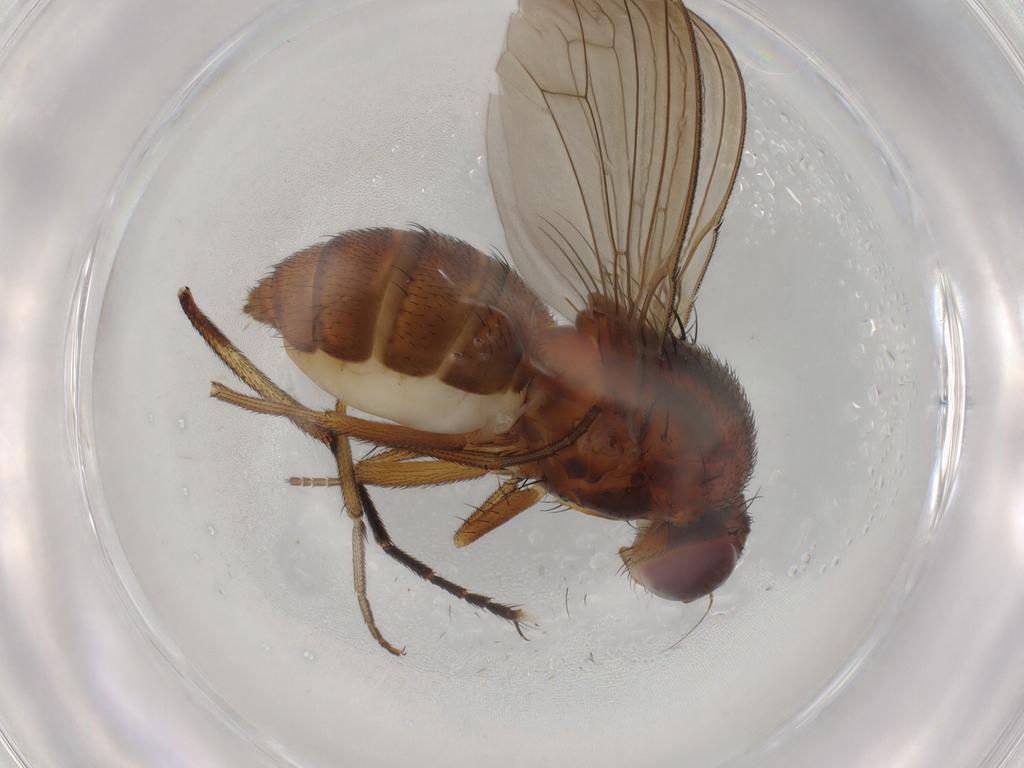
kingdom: Animalia
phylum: Arthropoda
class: Insecta
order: Diptera
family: Curtonotidae
